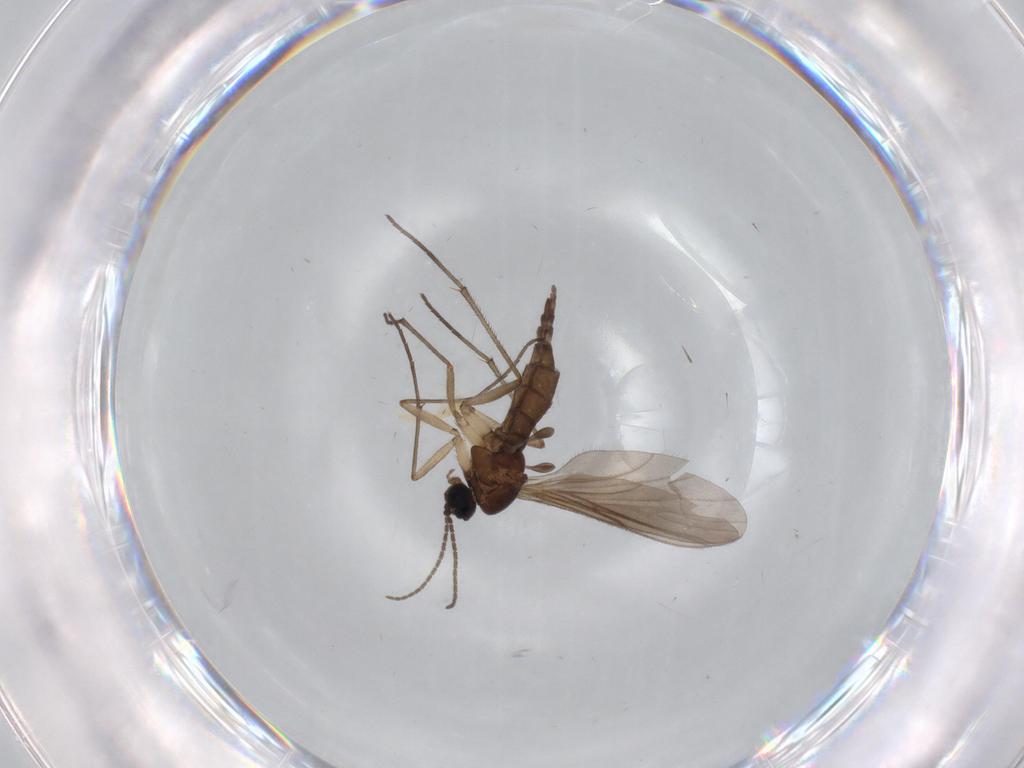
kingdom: Animalia
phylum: Arthropoda
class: Insecta
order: Diptera
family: Sciaridae
